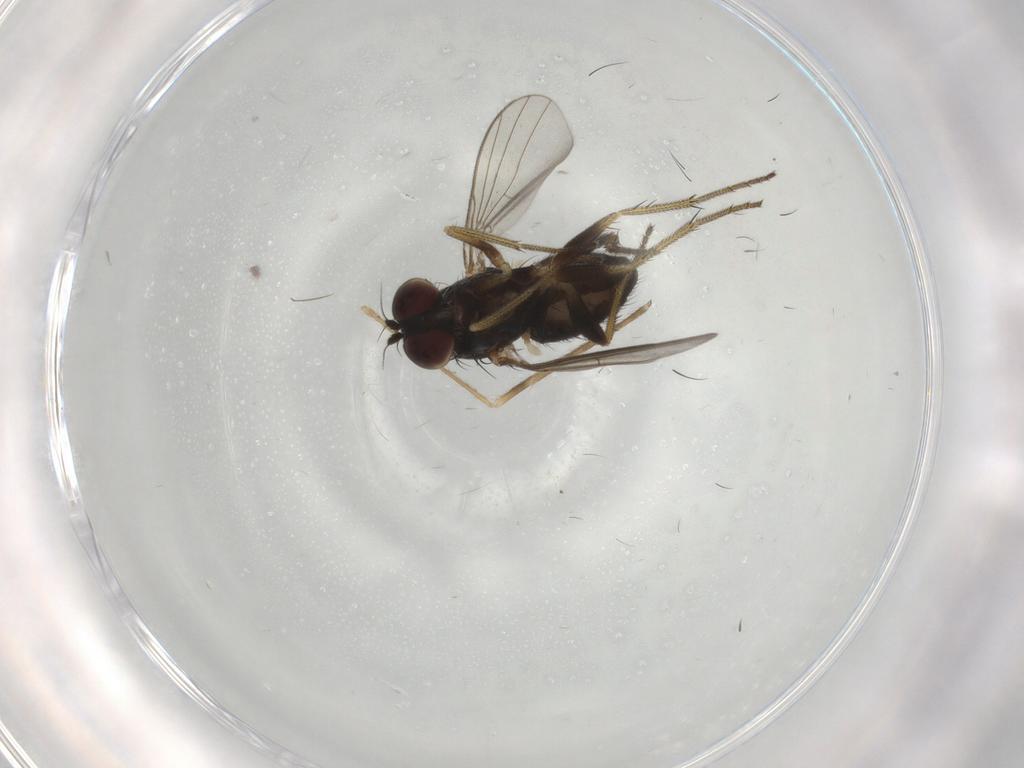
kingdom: Animalia
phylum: Arthropoda
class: Insecta
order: Diptera
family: Limoniidae
